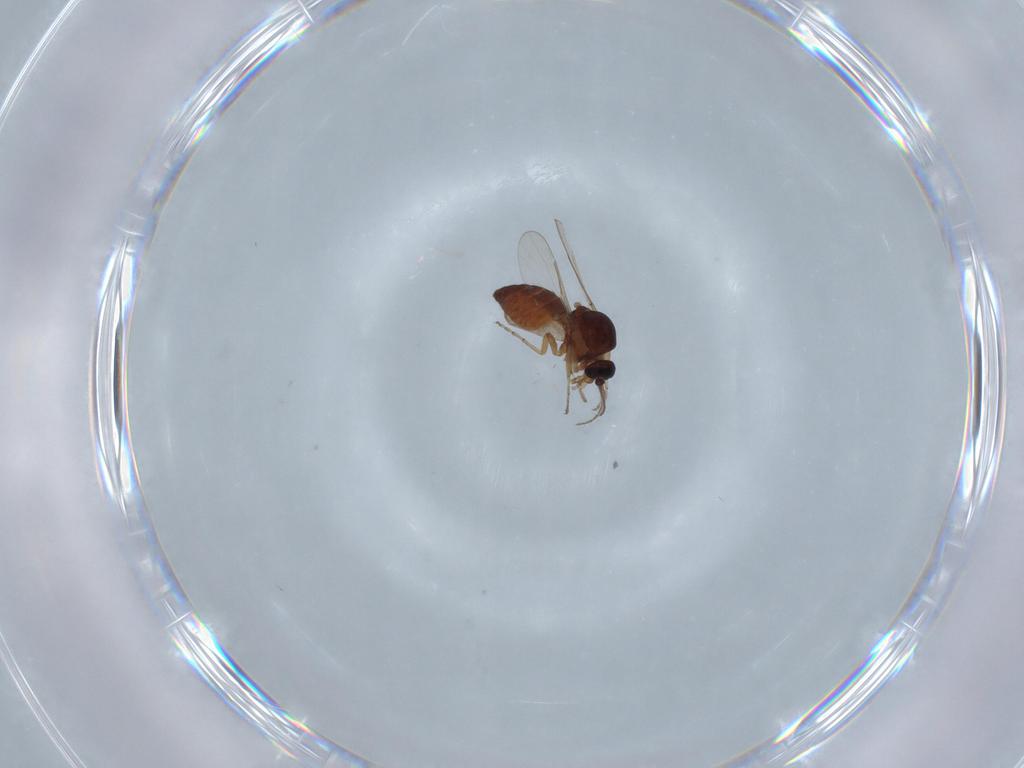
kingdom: Animalia
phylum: Arthropoda
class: Insecta
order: Diptera
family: Ceratopogonidae
